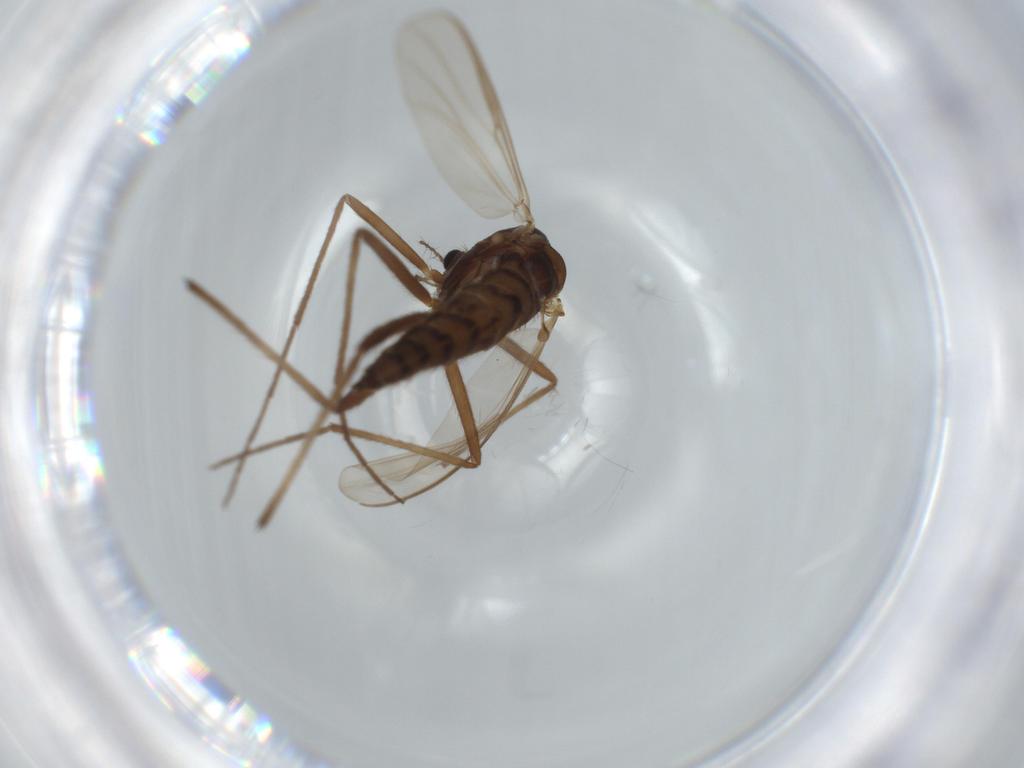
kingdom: Animalia
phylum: Arthropoda
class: Insecta
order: Diptera
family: Chironomidae
